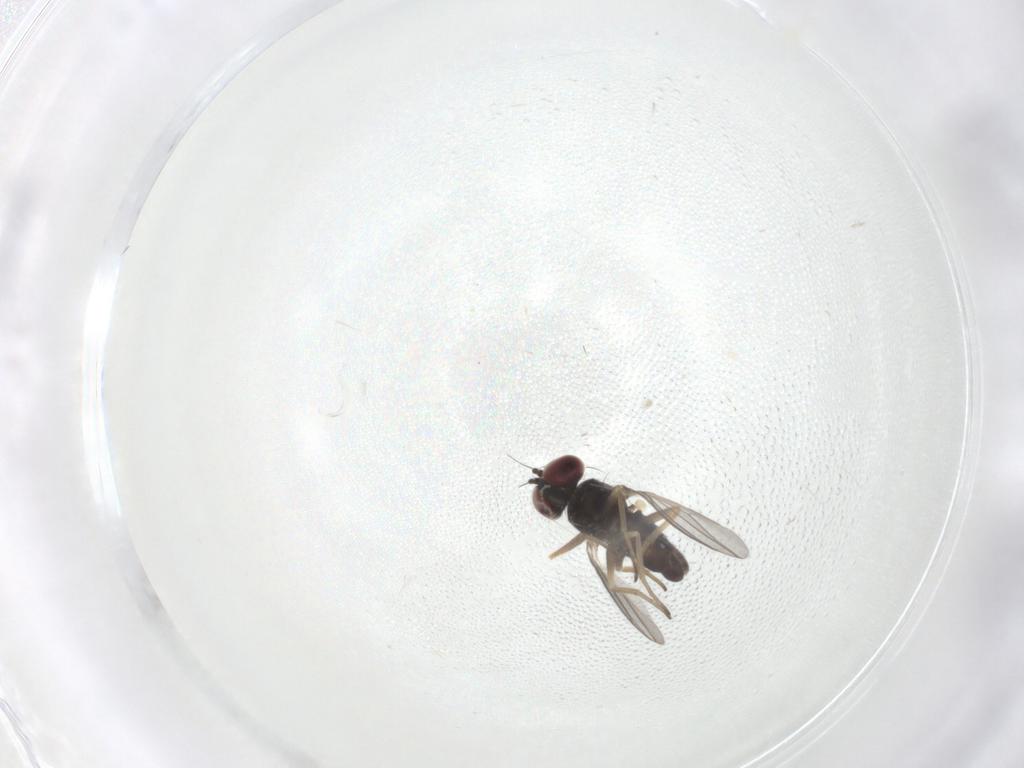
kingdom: Animalia
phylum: Arthropoda
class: Insecta
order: Diptera
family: Dolichopodidae
